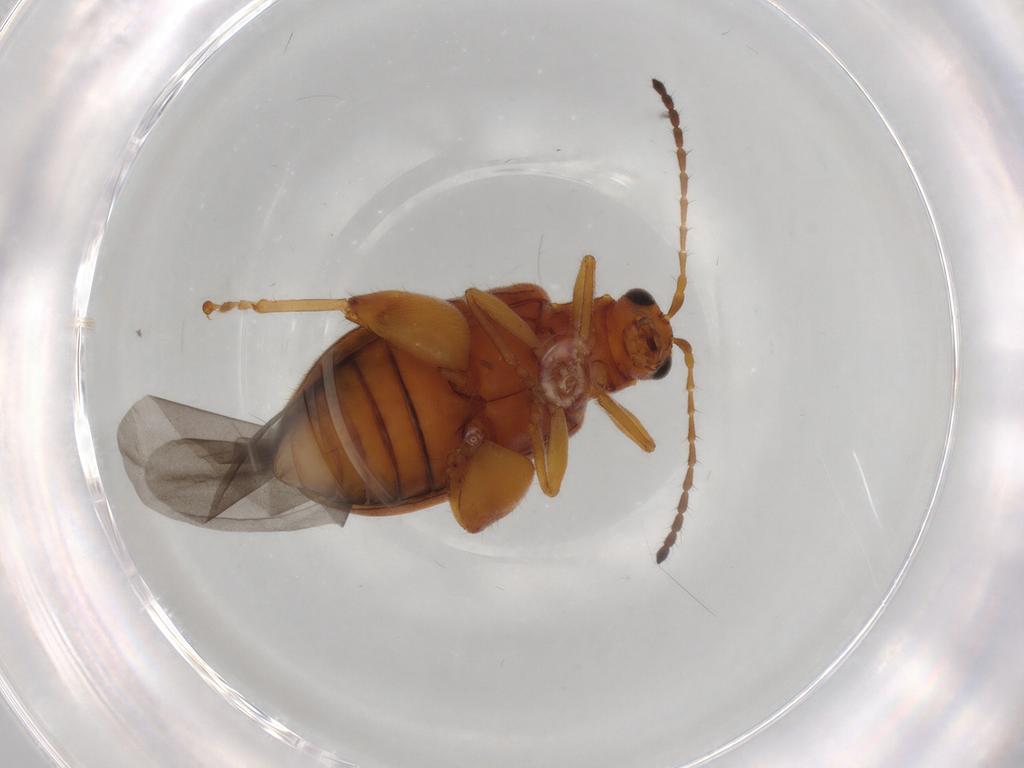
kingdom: Animalia
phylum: Arthropoda
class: Insecta
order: Coleoptera
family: Chrysomelidae
